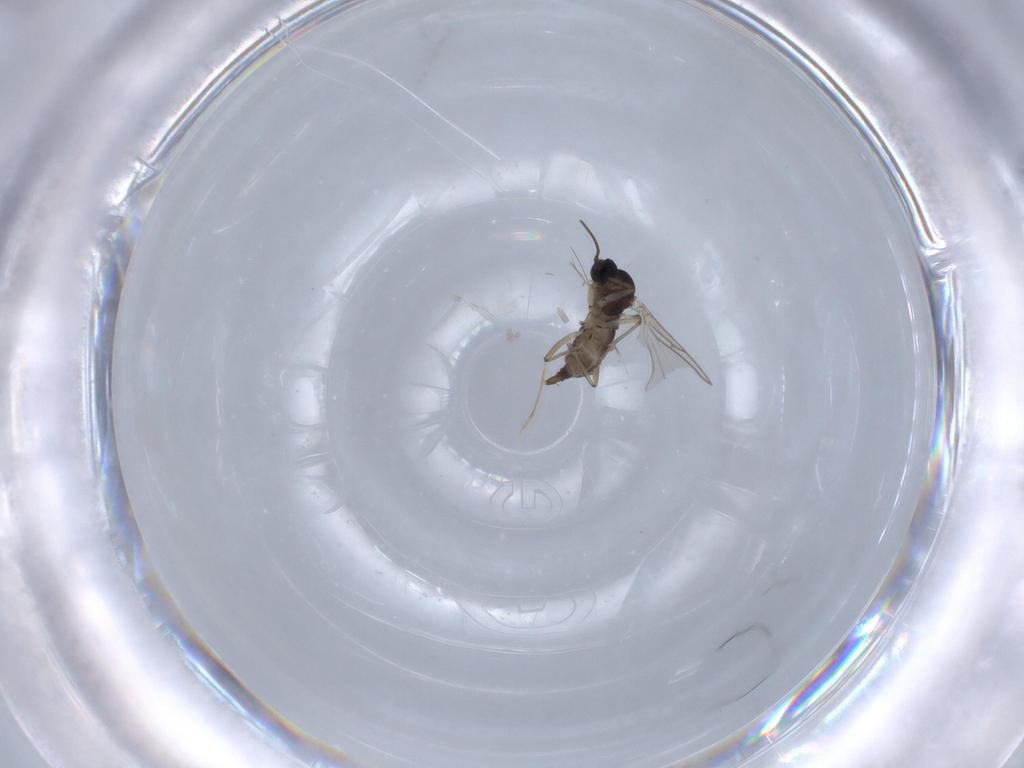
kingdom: Animalia
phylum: Arthropoda
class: Insecta
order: Diptera
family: Sciaridae
